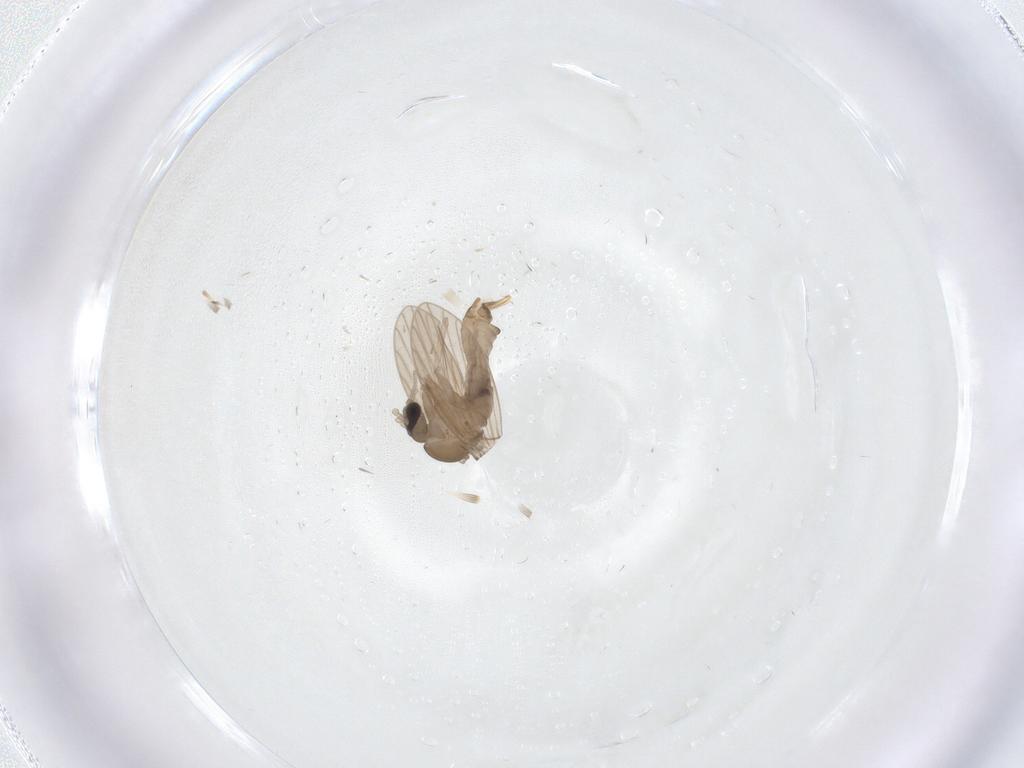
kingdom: Animalia
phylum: Arthropoda
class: Insecta
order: Diptera
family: Psychodidae
